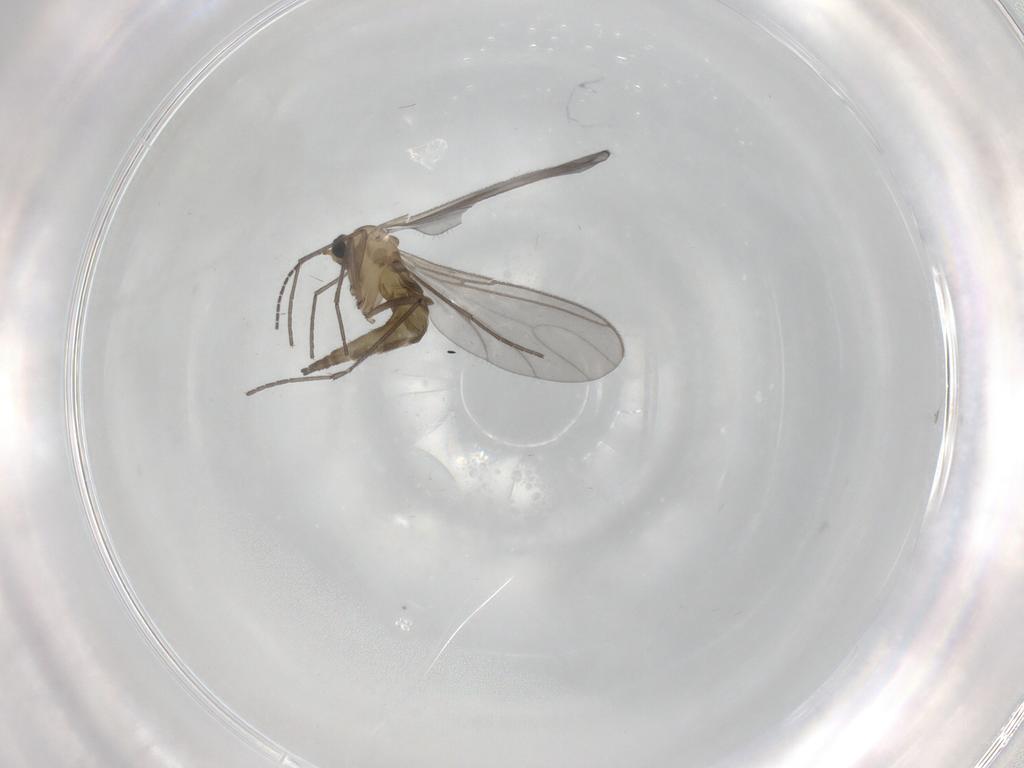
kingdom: Animalia
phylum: Arthropoda
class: Insecta
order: Diptera
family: Sciaridae
